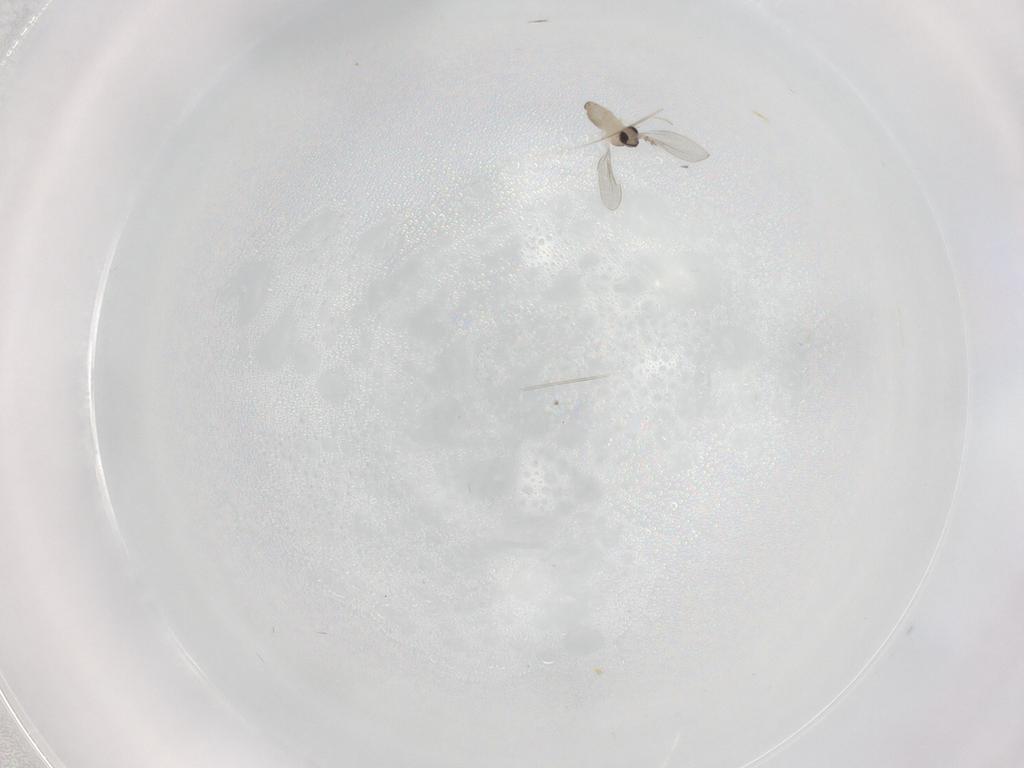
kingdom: Animalia
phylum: Arthropoda
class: Insecta
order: Diptera
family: Cecidomyiidae
